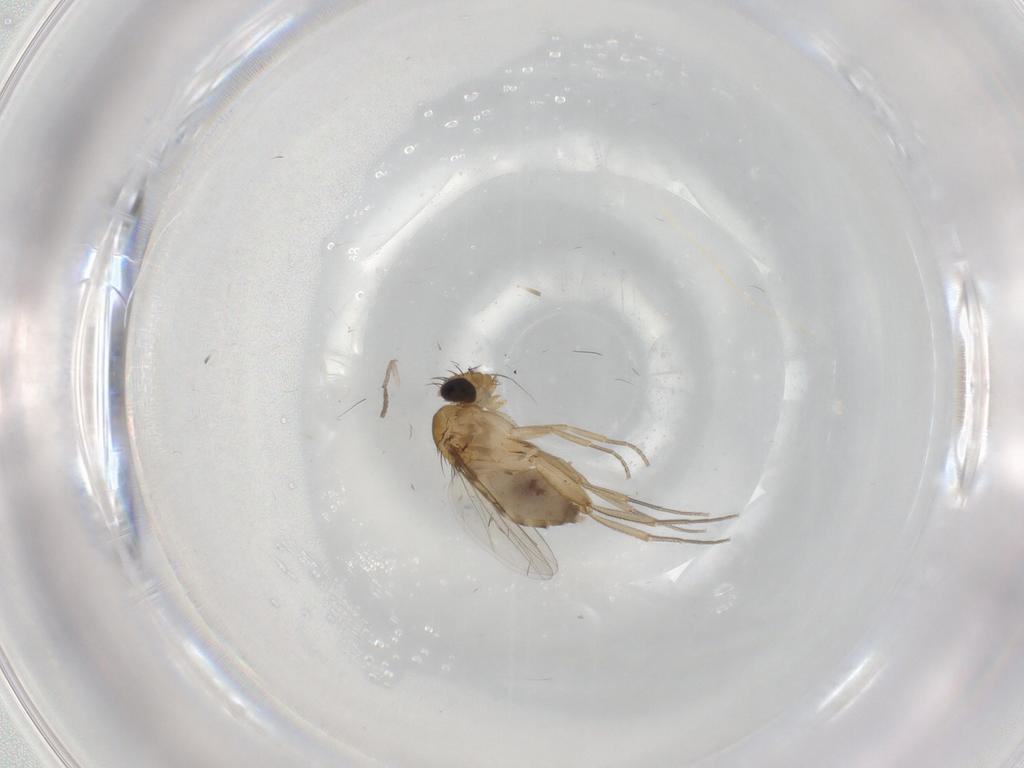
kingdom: Animalia
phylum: Arthropoda
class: Insecta
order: Diptera
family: Phoridae
